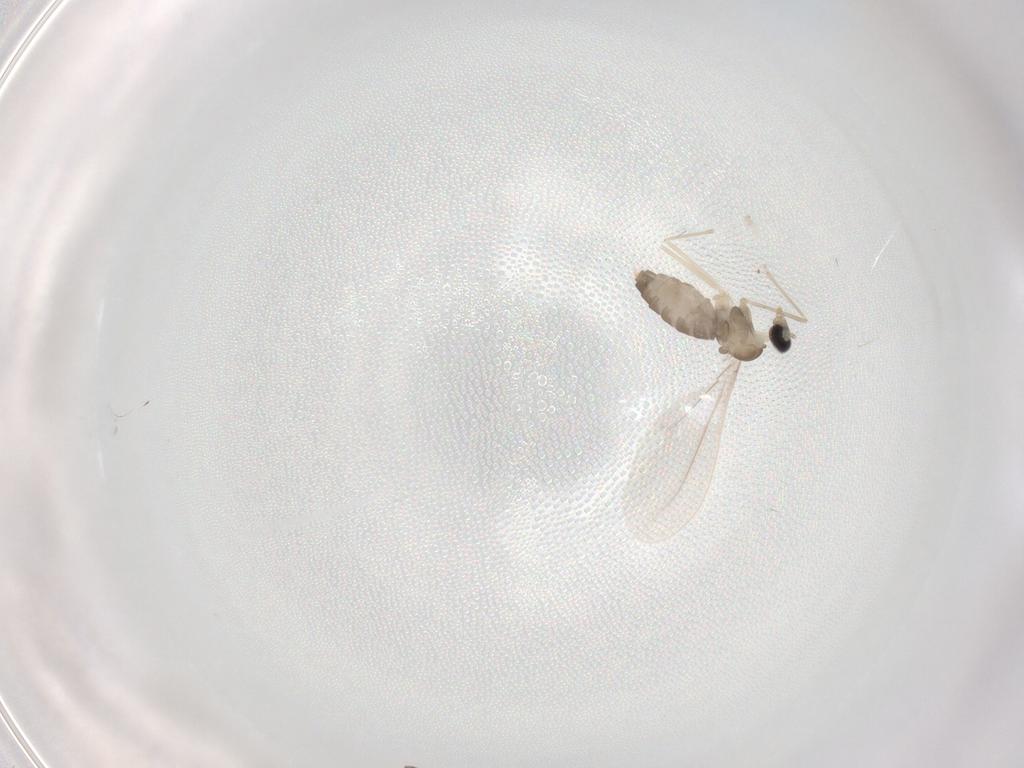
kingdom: Animalia
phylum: Arthropoda
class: Insecta
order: Diptera
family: Cecidomyiidae
